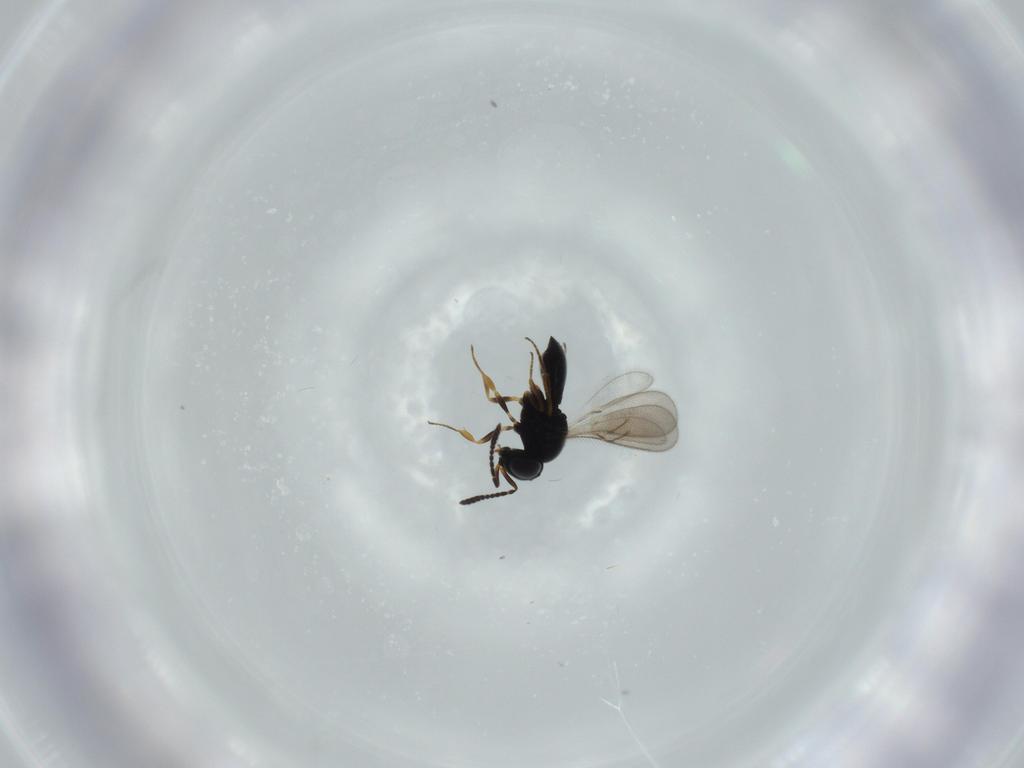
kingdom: Animalia
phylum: Arthropoda
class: Insecta
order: Hymenoptera
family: Scelionidae
